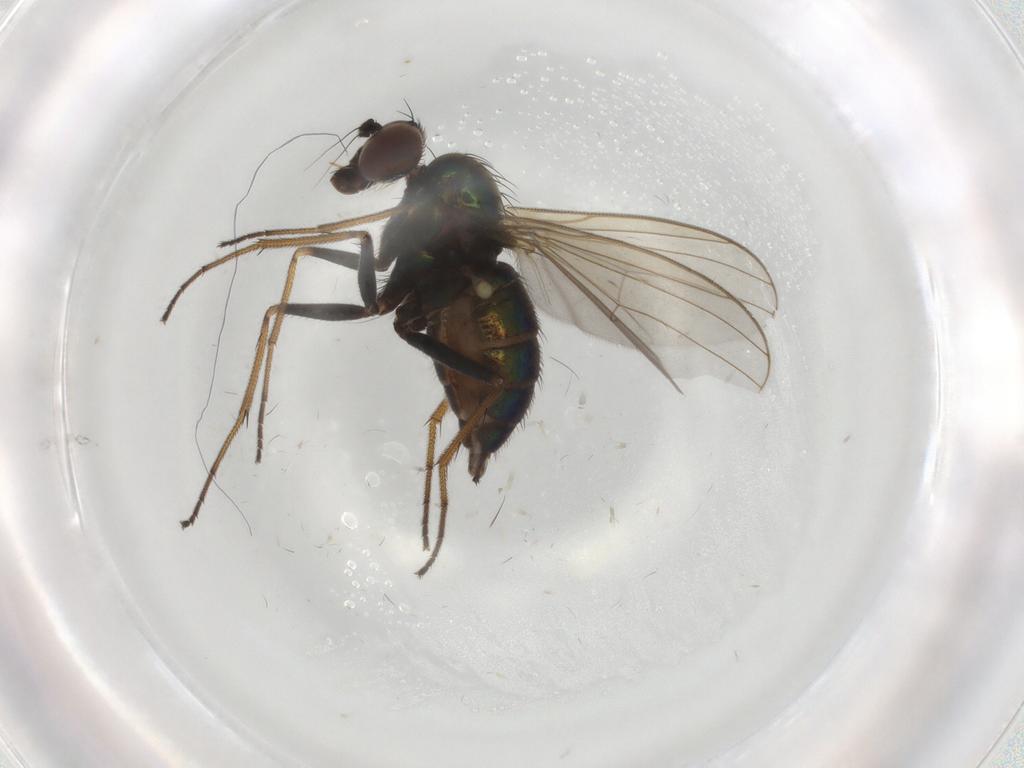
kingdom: Animalia
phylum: Arthropoda
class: Insecta
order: Diptera
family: Dolichopodidae
